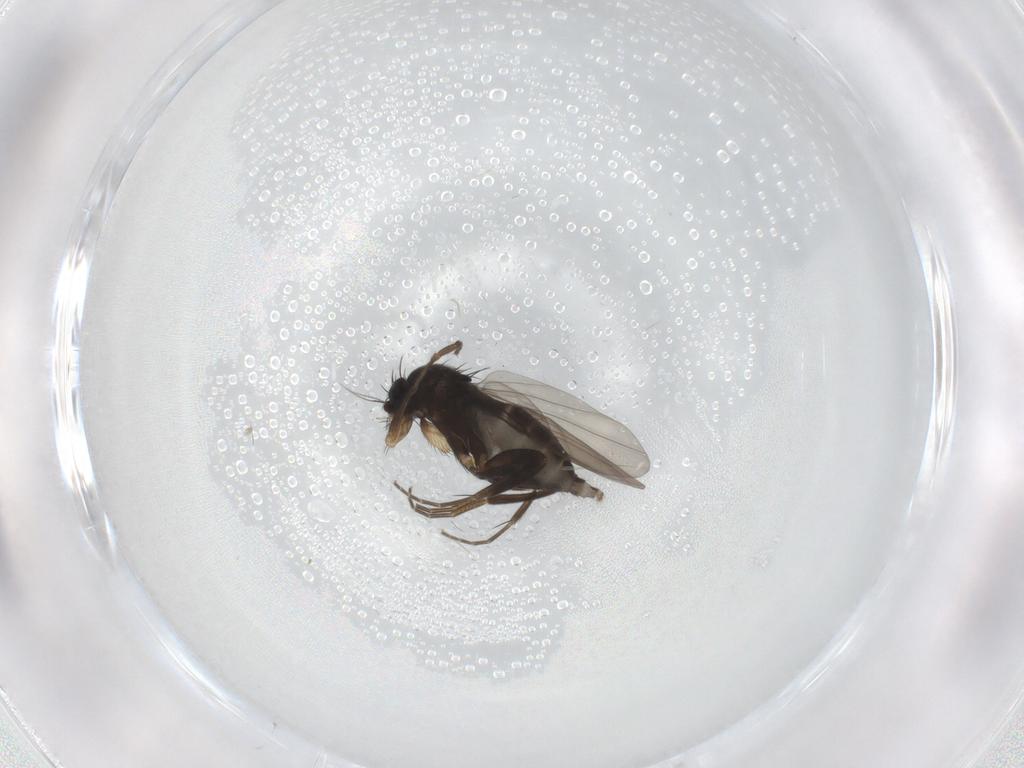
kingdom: Animalia
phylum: Arthropoda
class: Insecta
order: Diptera
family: Phoridae
